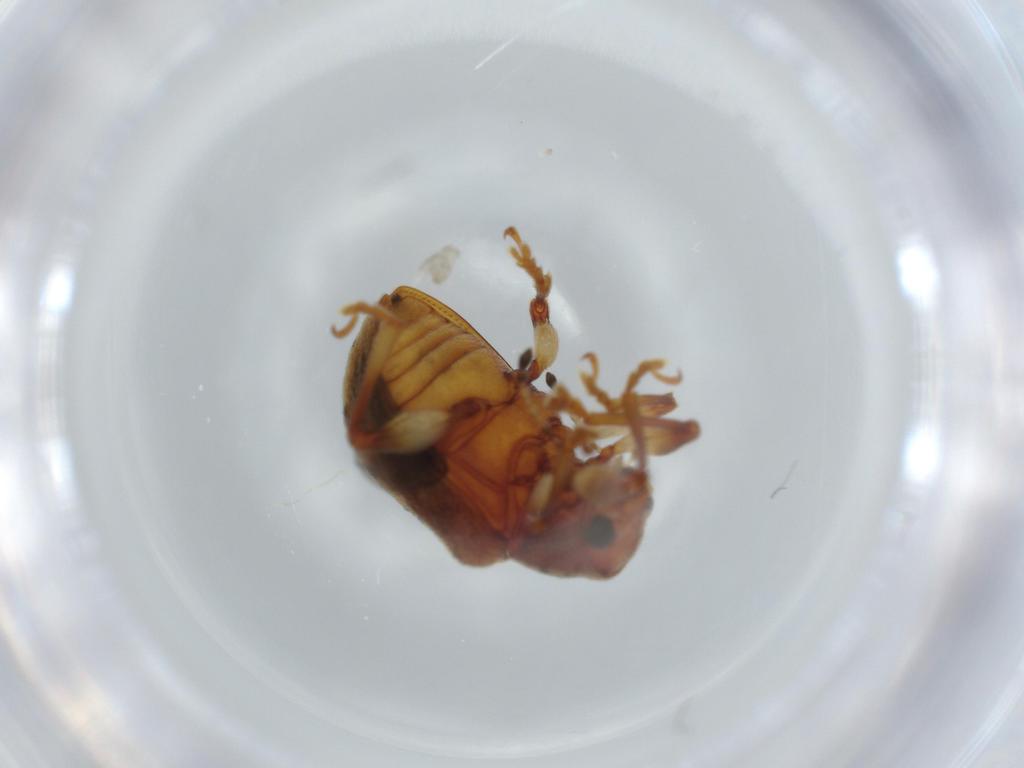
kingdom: Animalia
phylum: Arthropoda
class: Insecta
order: Coleoptera
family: Chrysomelidae
